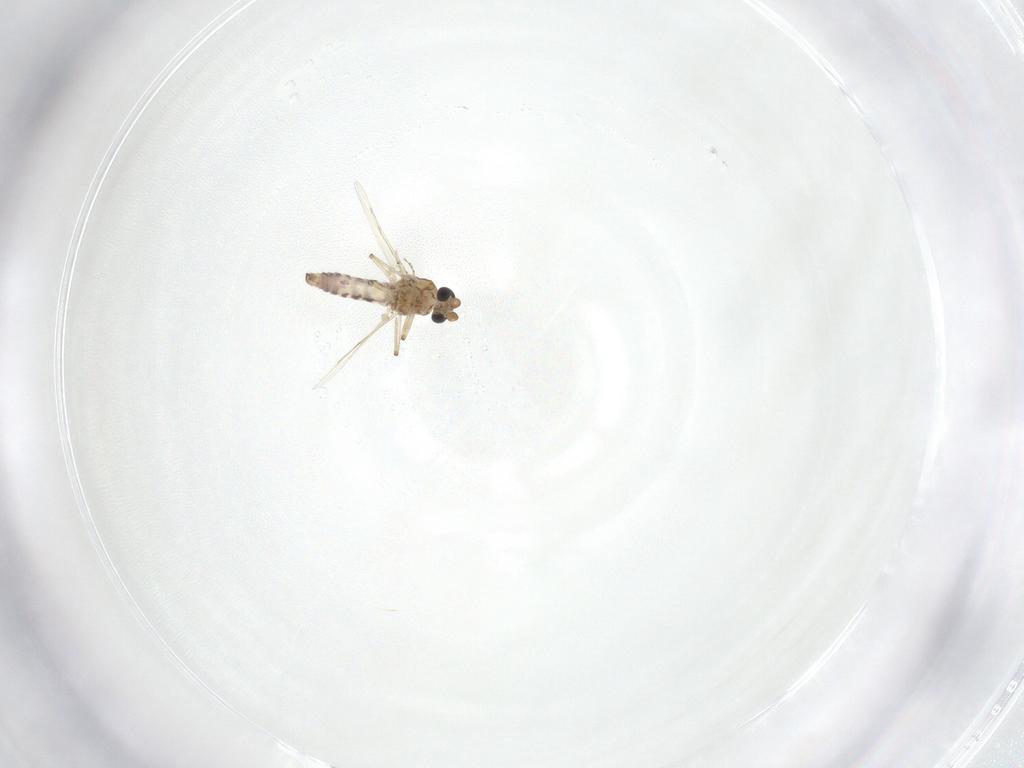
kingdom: Animalia
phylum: Arthropoda
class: Insecta
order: Diptera
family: Ceratopogonidae
